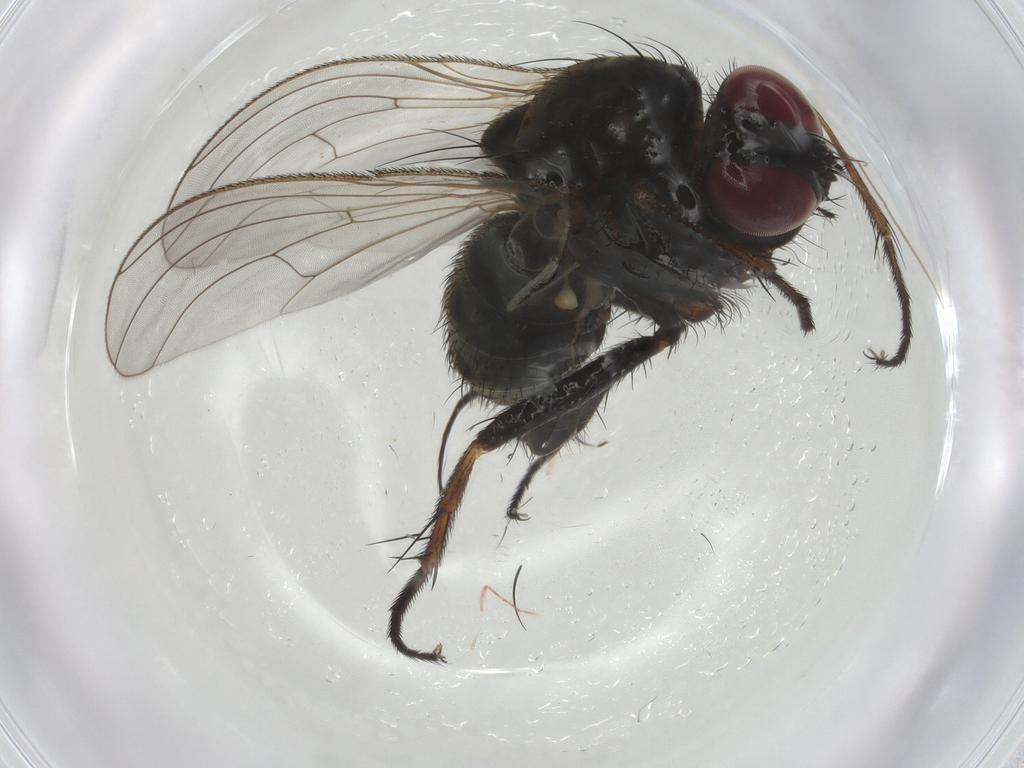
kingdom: Animalia
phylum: Arthropoda
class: Insecta
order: Diptera
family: Muscidae
